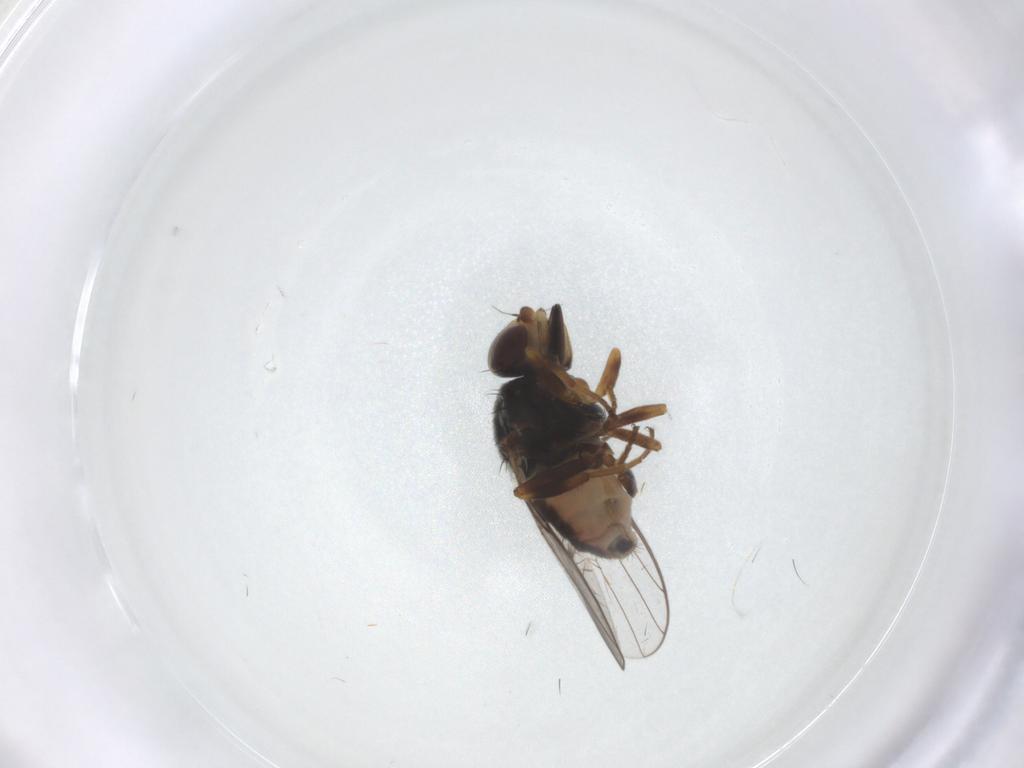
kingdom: Animalia
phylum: Arthropoda
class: Insecta
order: Diptera
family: Chloropidae
